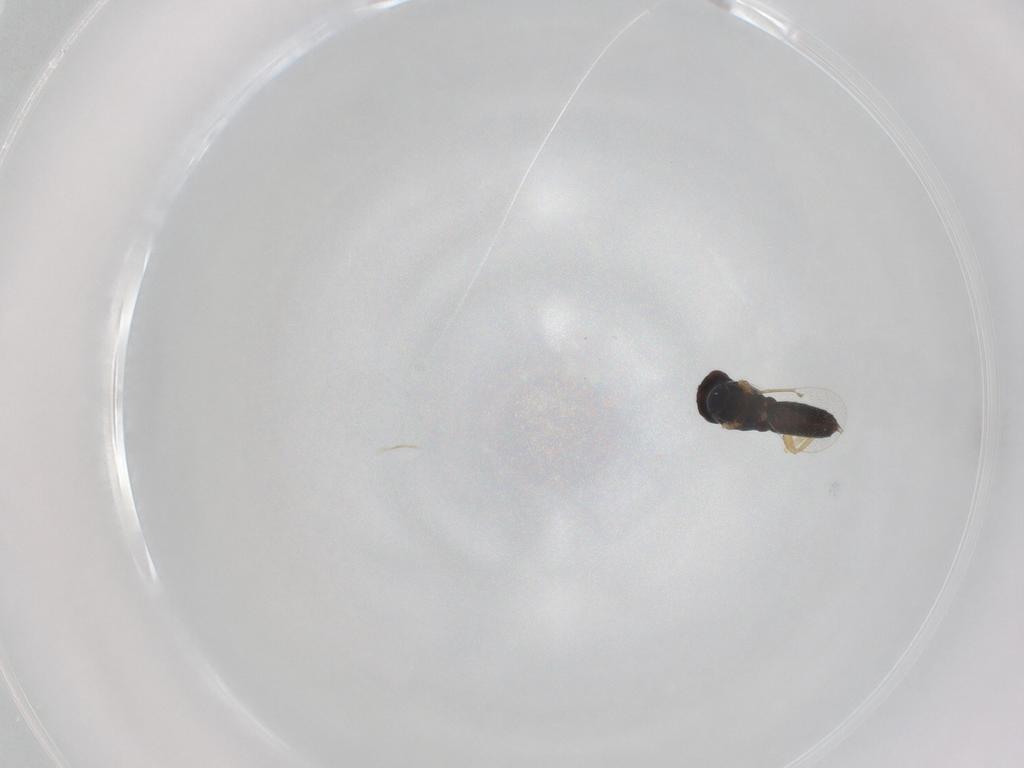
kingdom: Animalia
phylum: Arthropoda
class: Insecta
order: Hymenoptera
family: Eulophidae
